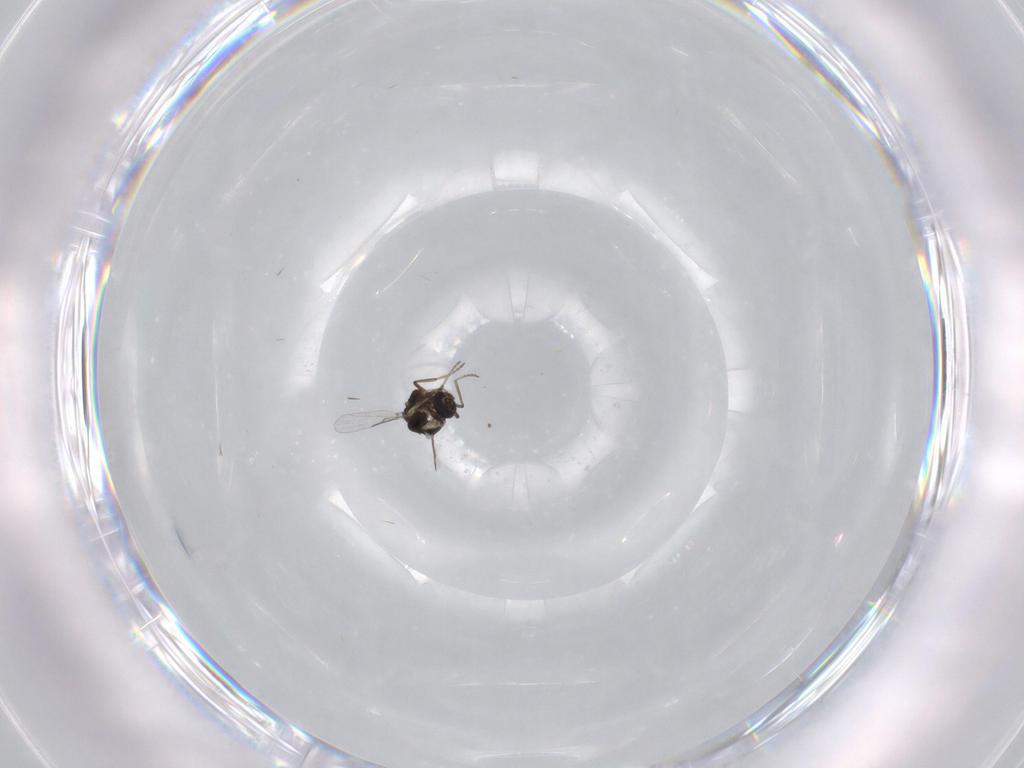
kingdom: Animalia
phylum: Arthropoda
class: Insecta
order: Diptera
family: Ceratopogonidae
